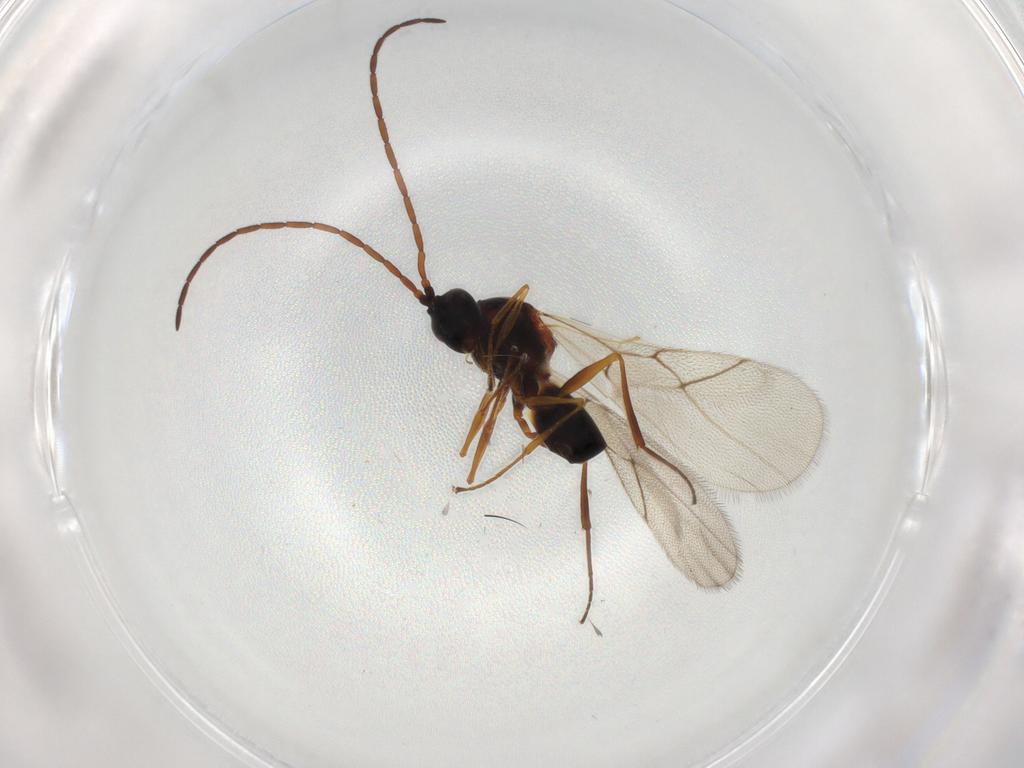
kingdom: Animalia
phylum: Arthropoda
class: Insecta
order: Hymenoptera
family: Figitidae
